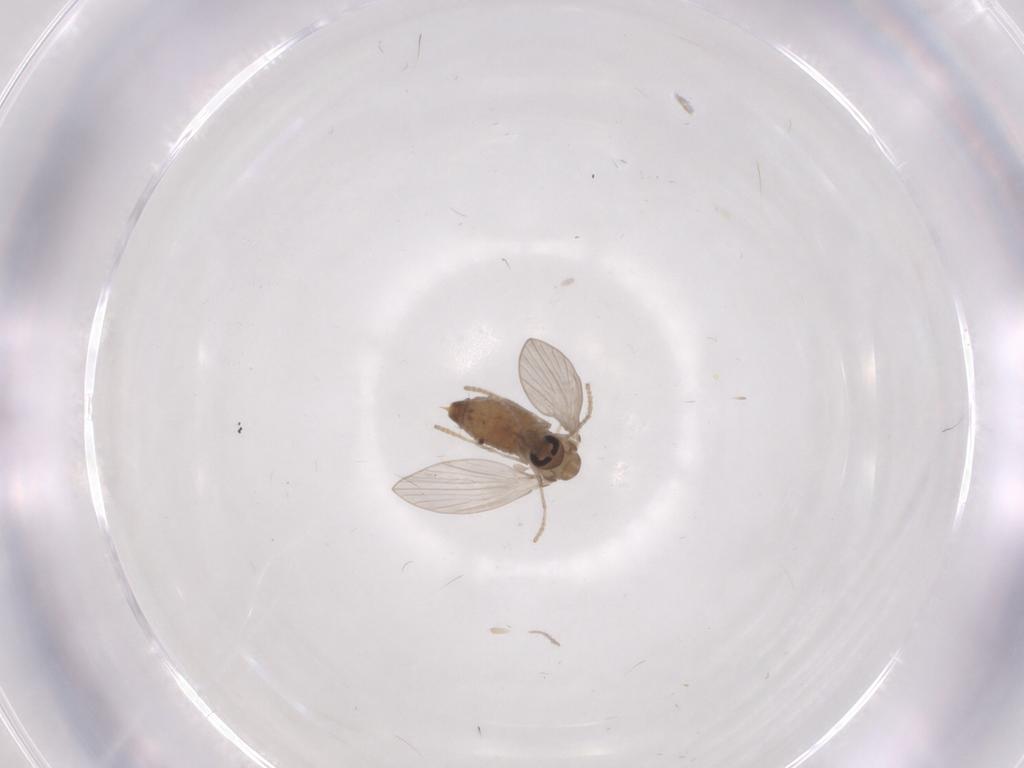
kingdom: Animalia
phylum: Arthropoda
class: Insecta
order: Diptera
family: Psychodidae
